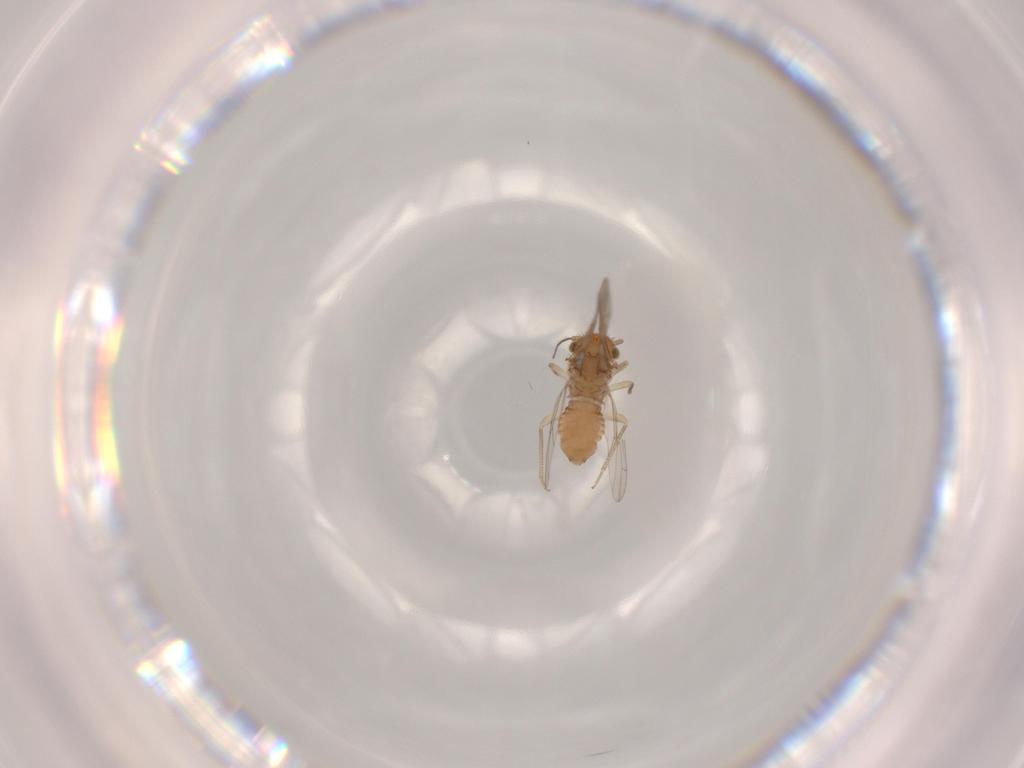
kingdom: Animalia
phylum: Arthropoda
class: Insecta
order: Psocodea
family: Ectopsocidae
